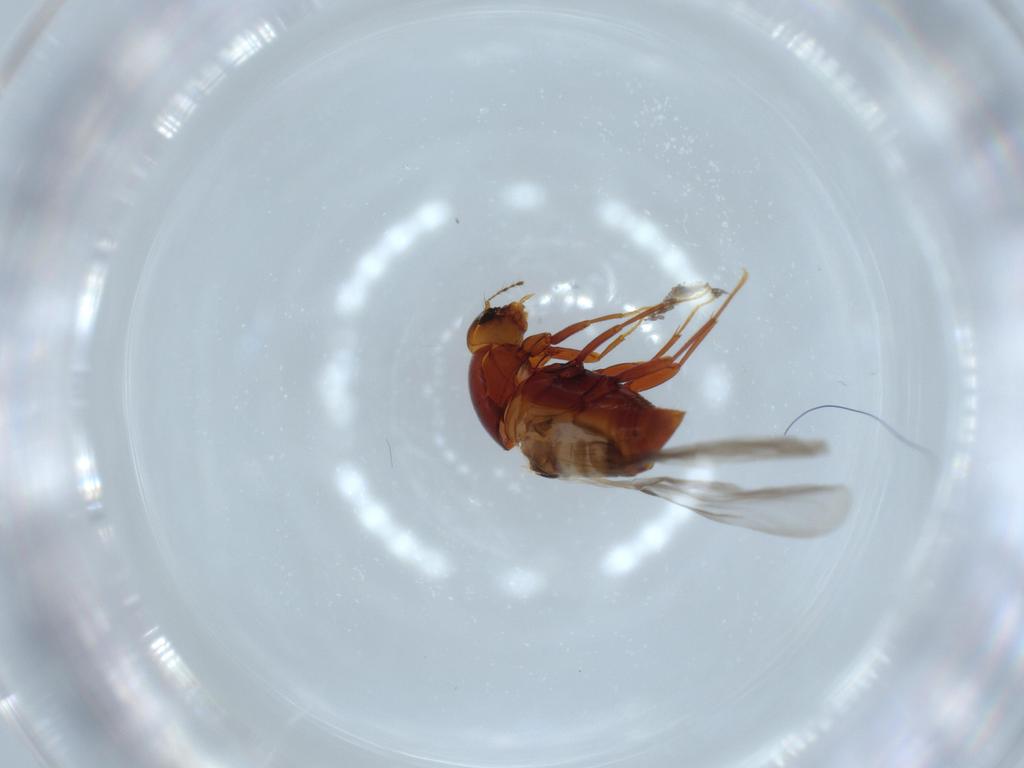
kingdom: Animalia
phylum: Arthropoda
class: Insecta
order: Coleoptera
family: Staphylinidae
